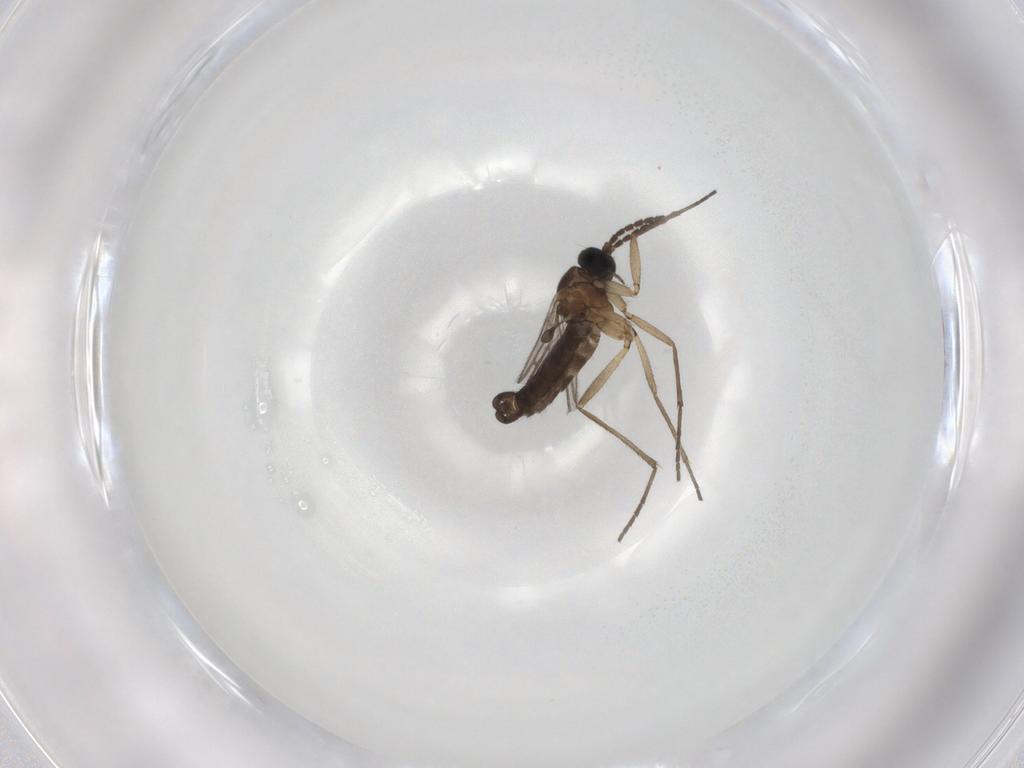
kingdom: Animalia
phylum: Arthropoda
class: Insecta
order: Diptera
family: Sciaridae
